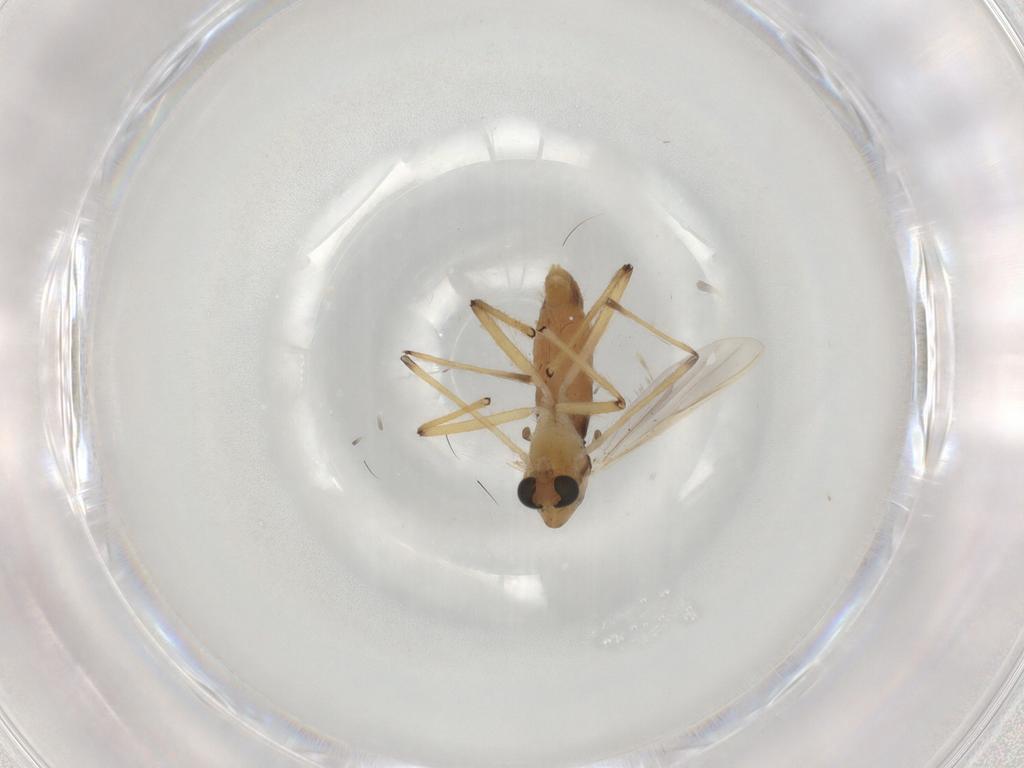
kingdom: Animalia
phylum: Arthropoda
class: Insecta
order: Diptera
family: Chironomidae
